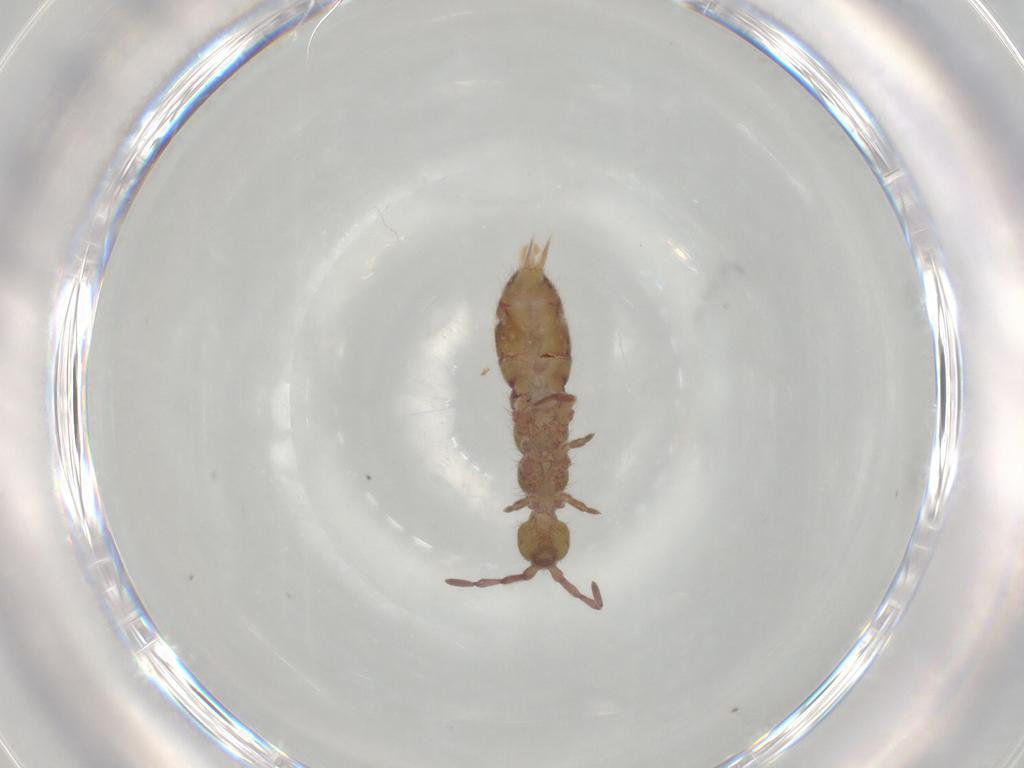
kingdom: Animalia
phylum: Arthropoda
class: Collembola
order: Entomobryomorpha
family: Isotomidae
